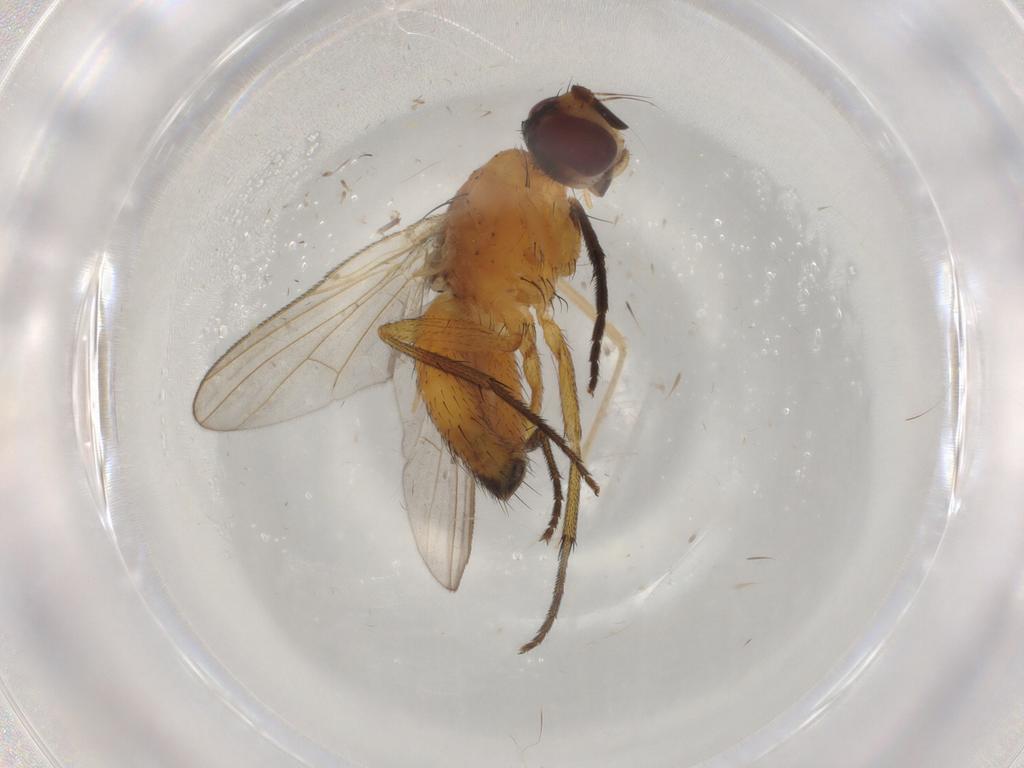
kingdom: Animalia
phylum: Arthropoda
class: Insecta
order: Diptera
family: Muscidae
